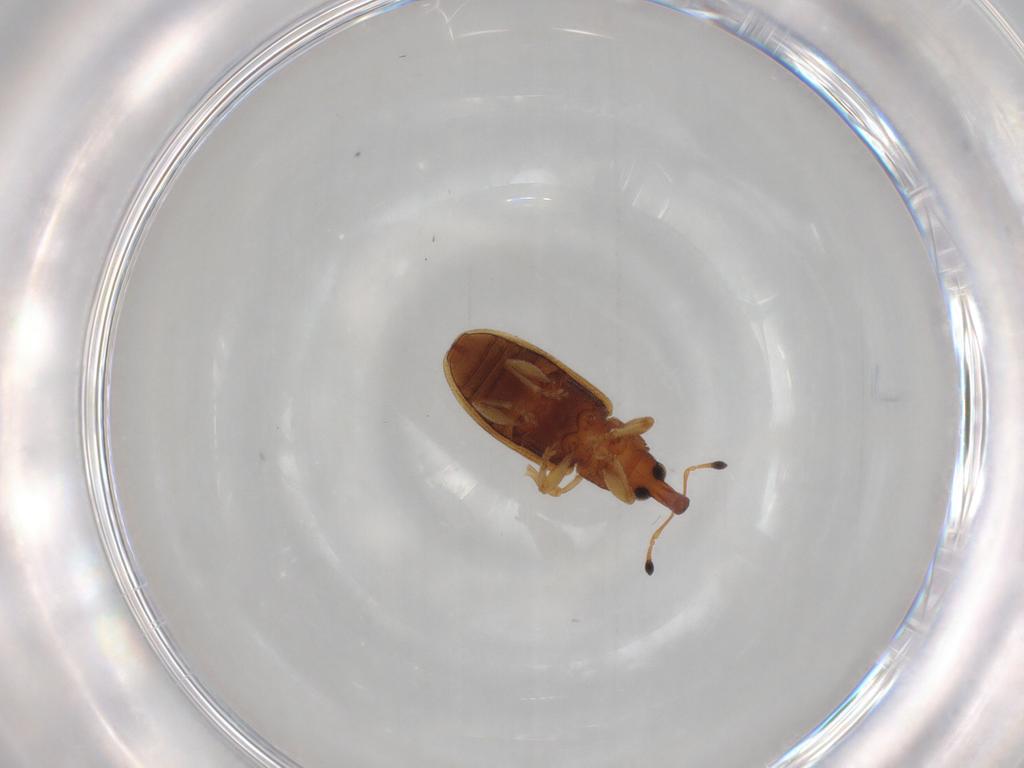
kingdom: Animalia
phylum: Arthropoda
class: Insecta
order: Coleoptera
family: Curculionidae
